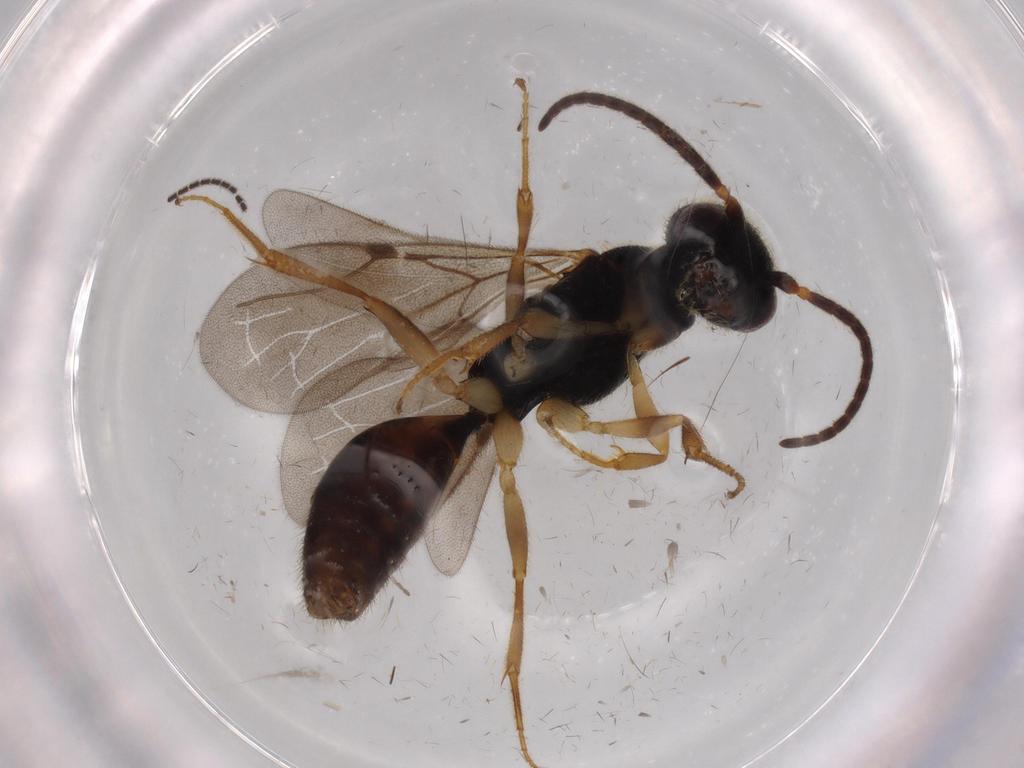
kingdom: Animalia
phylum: Arthropoda
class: Insecta
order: Hymenoptera
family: Bethylidae
